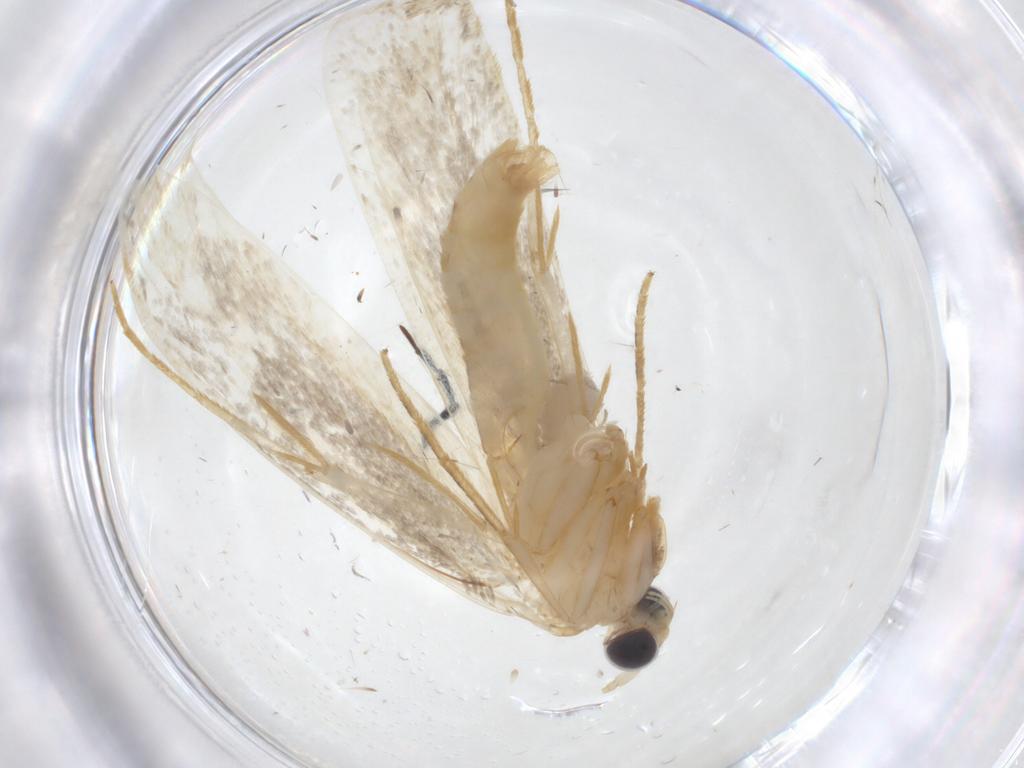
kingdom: Animalia
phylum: Arthropoda
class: Insecta
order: Lepidoptera
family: Tineidae
